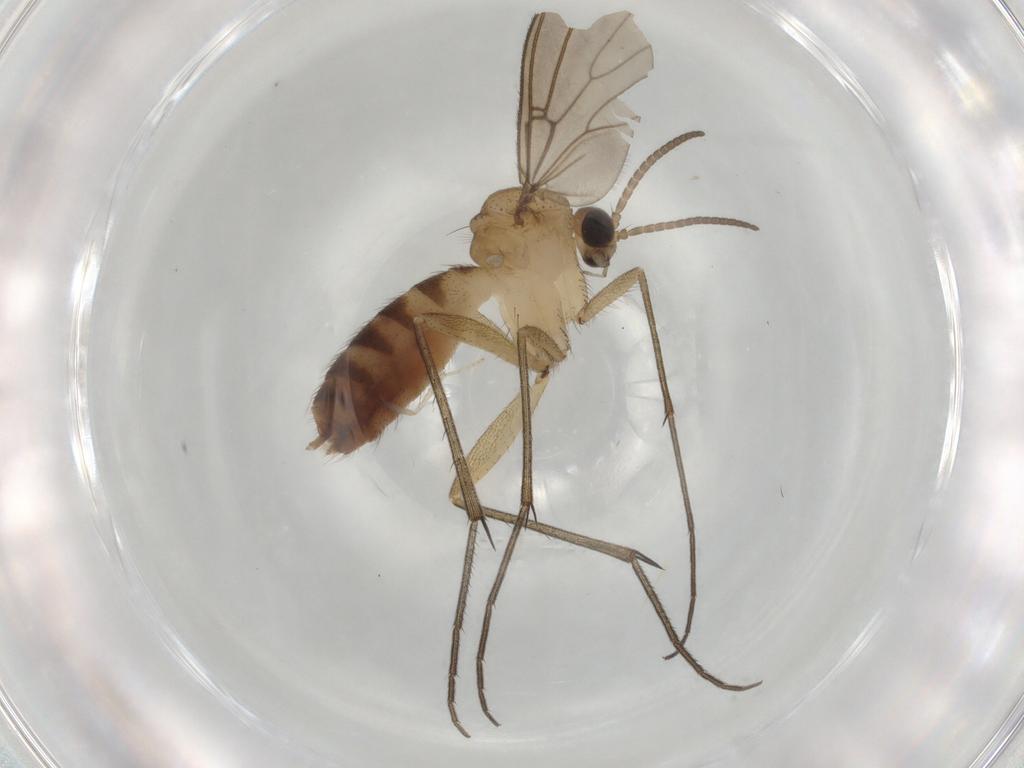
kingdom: Animalia
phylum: Arthropoda
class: Insecta
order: Diptera
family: Mycetophilidae
